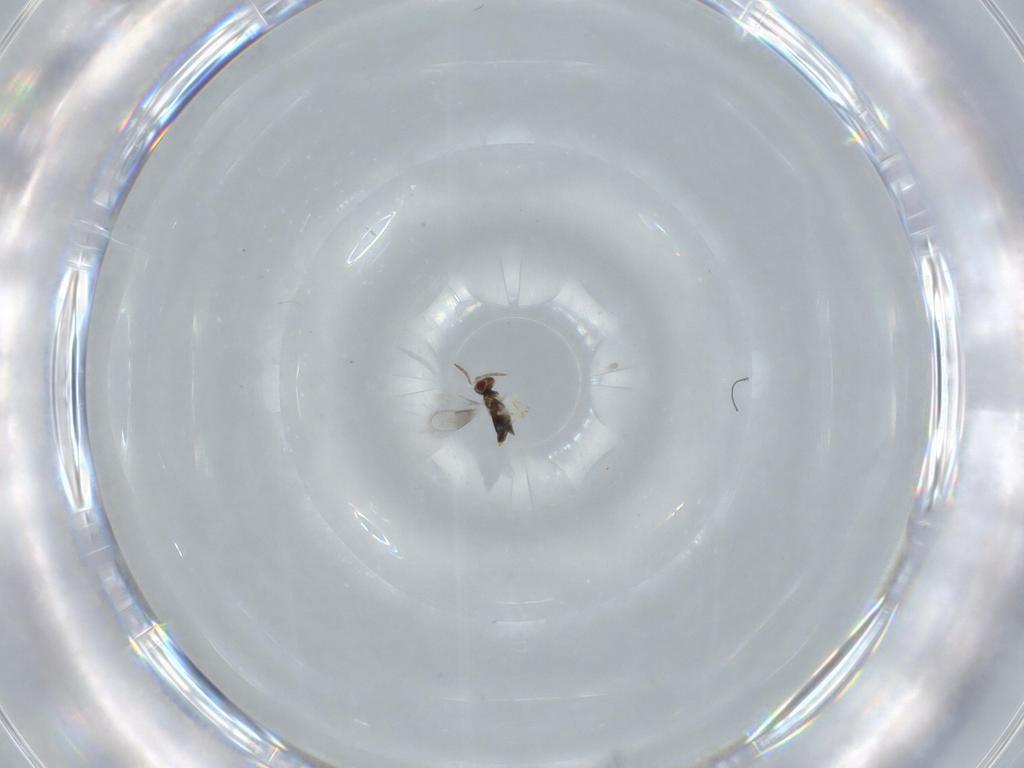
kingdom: Animalia
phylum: Arthropoda
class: Insecta
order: Hymenoptera
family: Aphelinidae
